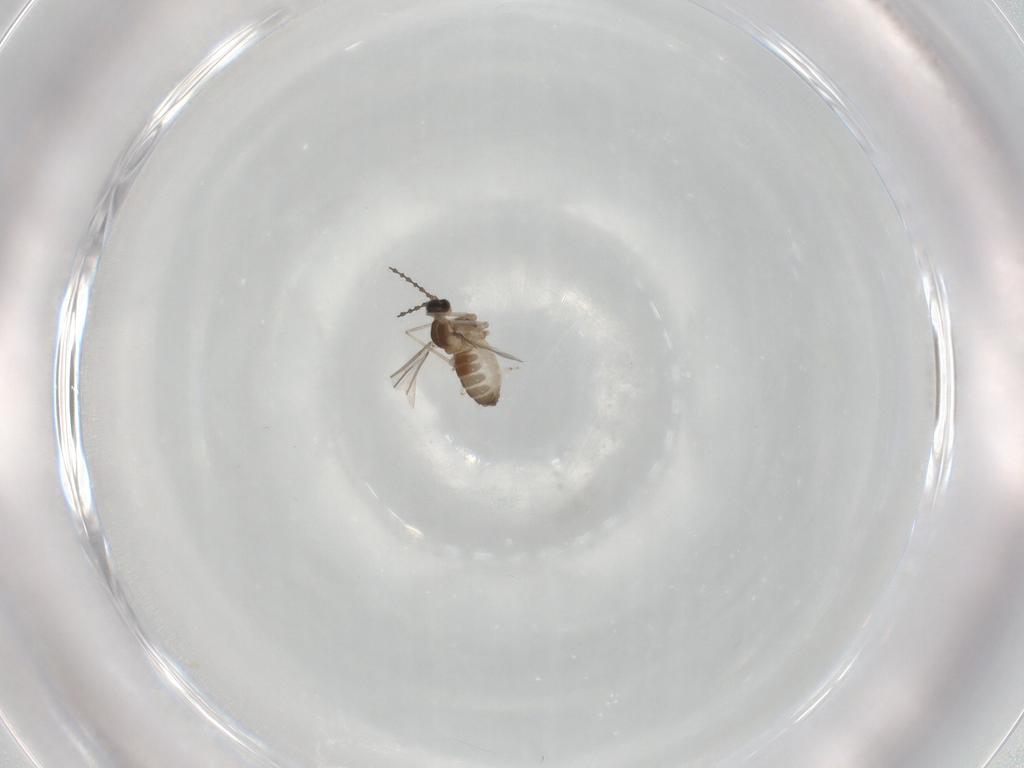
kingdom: Animalia
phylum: Arthropoda
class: Insecta
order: Diptera
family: Cecidomyiidae
